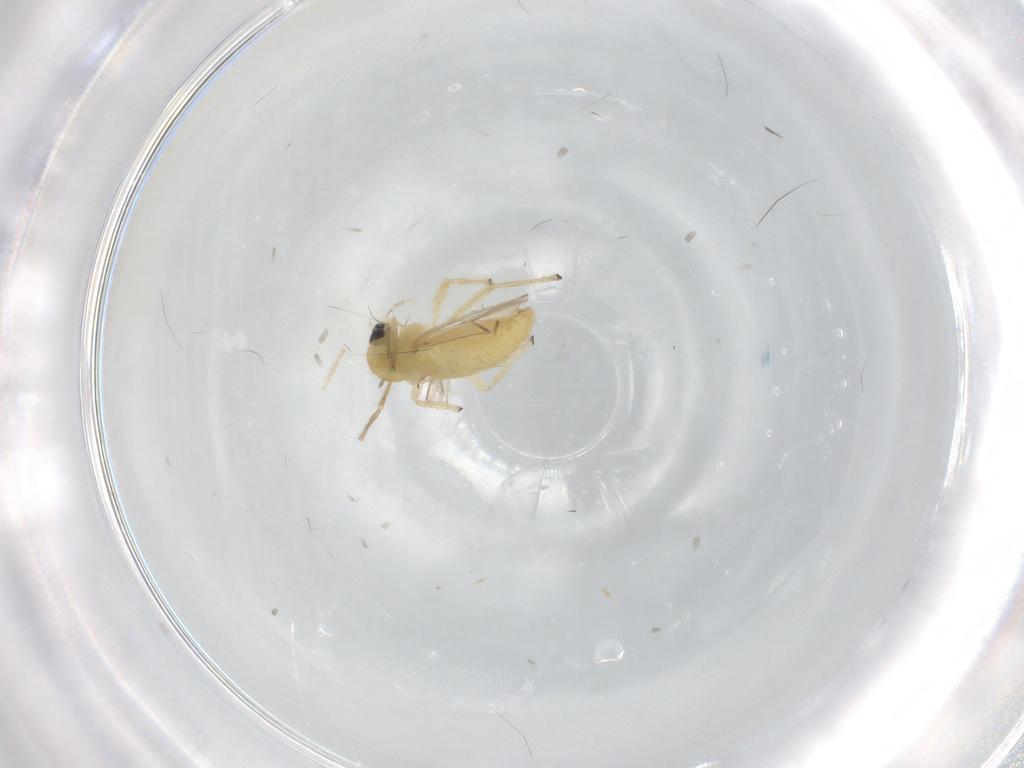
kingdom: Animalia
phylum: Arthropoda
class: Insecta
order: Diptera
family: Chironomidae
